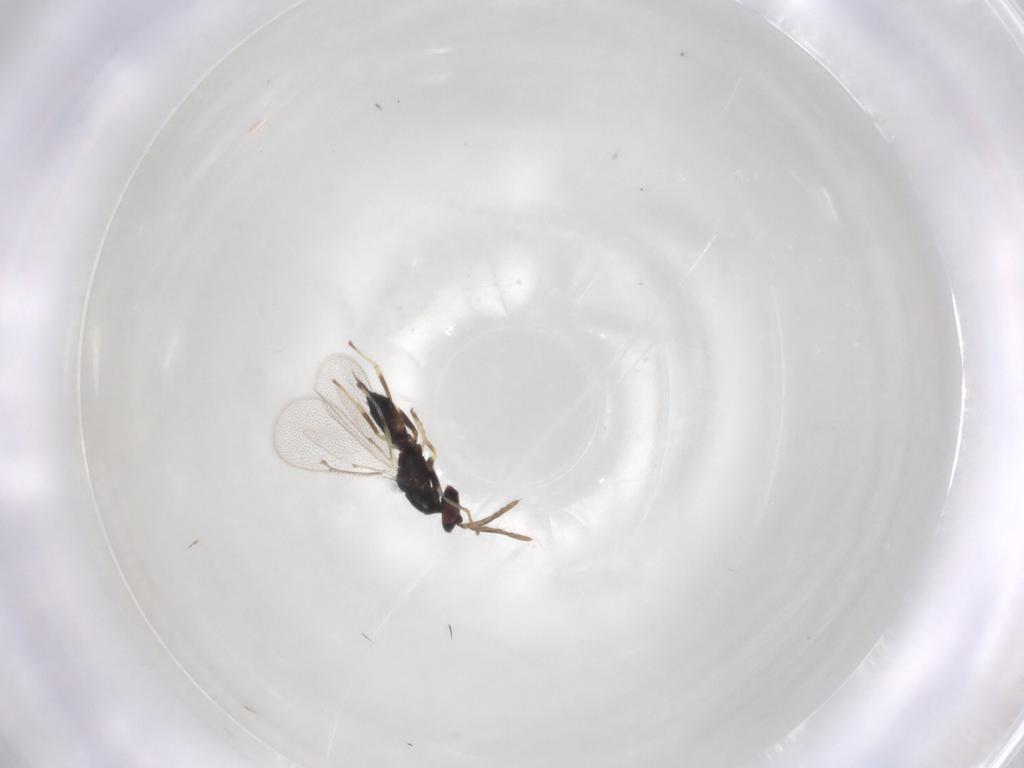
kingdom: Animalia
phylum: Arthropoda
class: Insecta
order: Hymenoptera
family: Eulophidae
